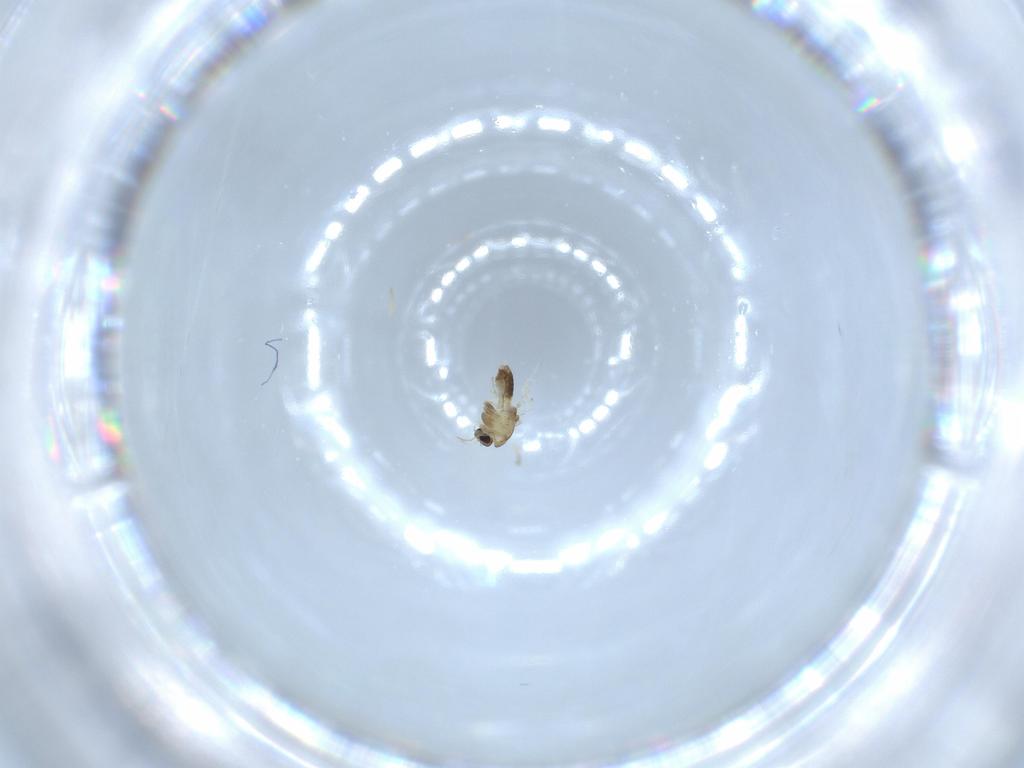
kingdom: Animalia
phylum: Arthropoda
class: Insecta
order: Diptera
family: Chironomidae
